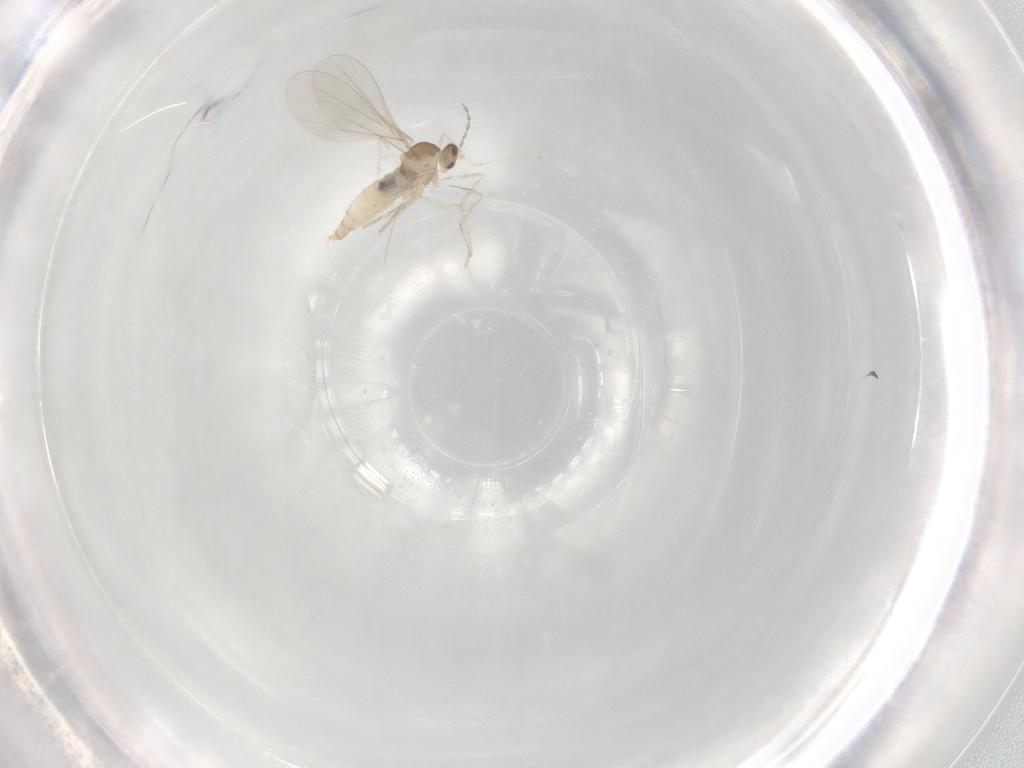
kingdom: Animalia
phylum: Arthropoda
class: Insecta
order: Diptera
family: Cecidomyiidae
